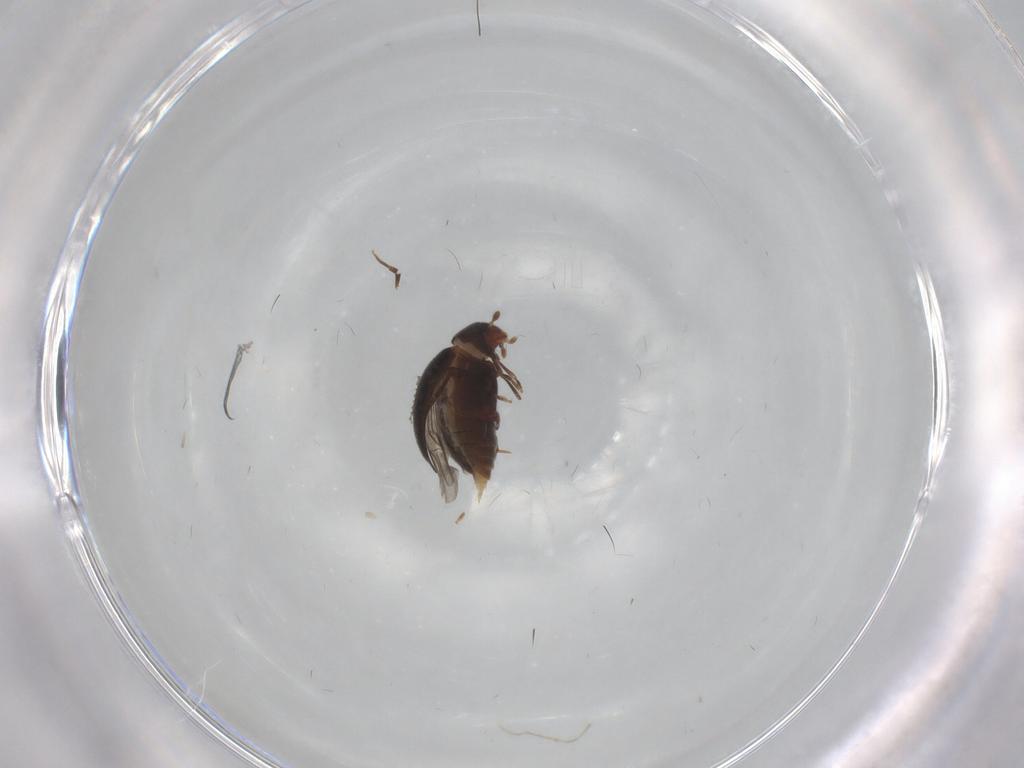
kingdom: Animalia
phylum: Arthropoda
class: Insecta
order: Coleoptera
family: Melandryidae
